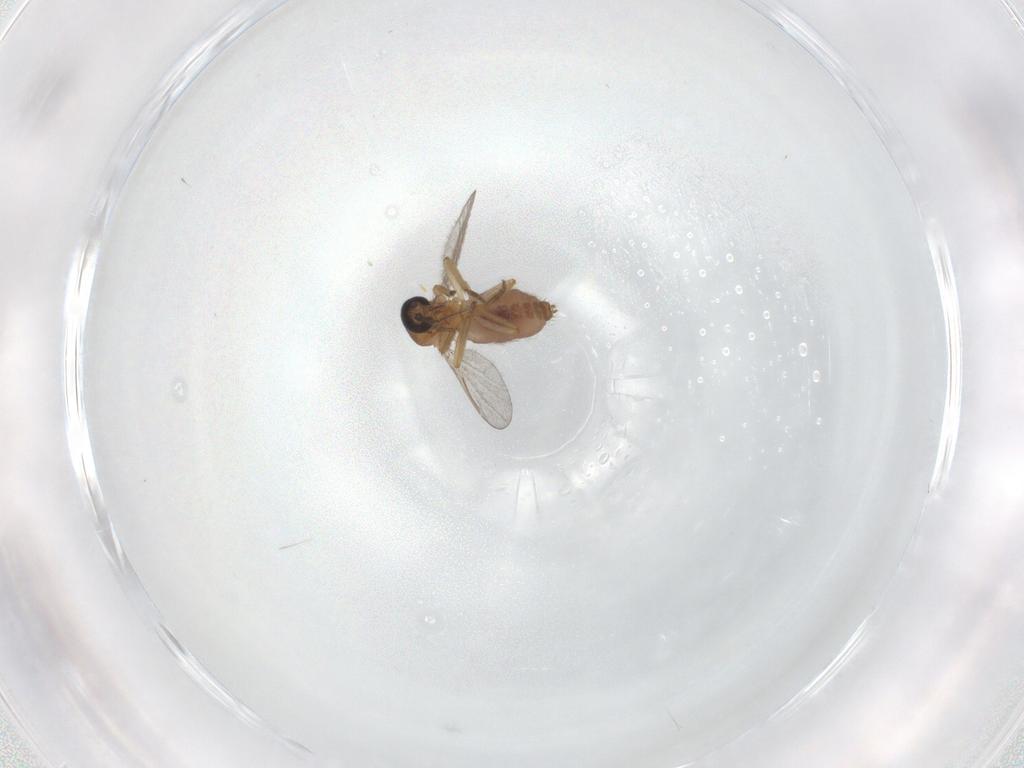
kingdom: Animalia
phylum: Arthropoda
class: Insecta
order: Diptera
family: Ceratopogonidae
